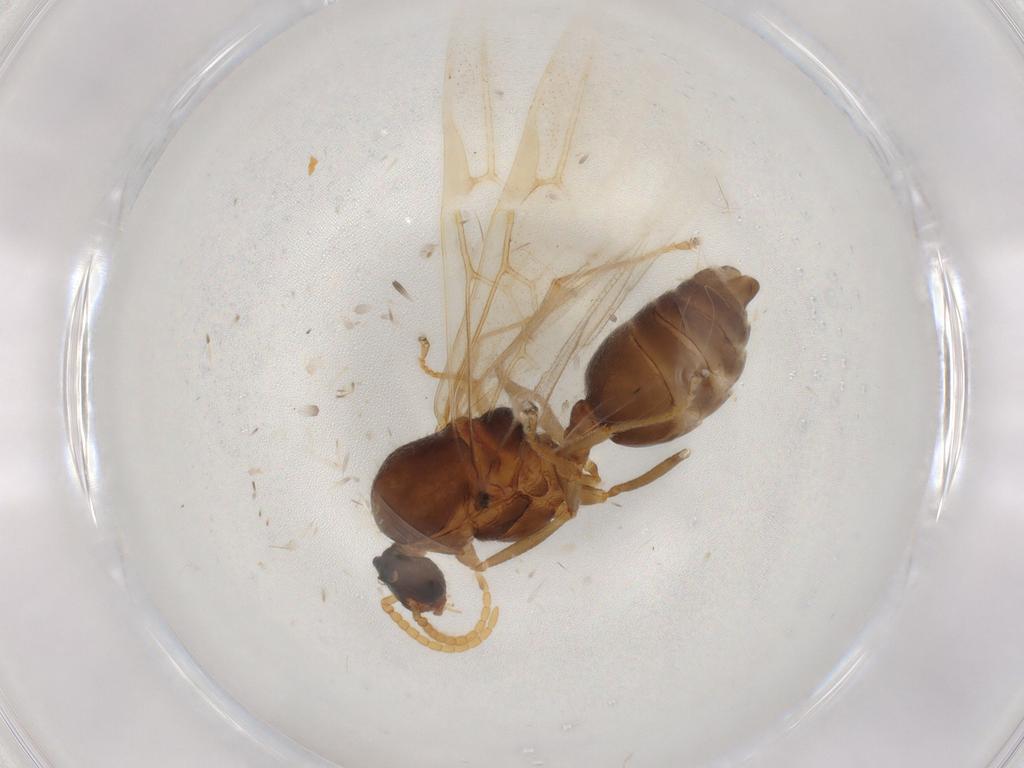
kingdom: Animalia
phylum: Arthropoda
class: Insecta
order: Hymenoptera
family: Formicidae
